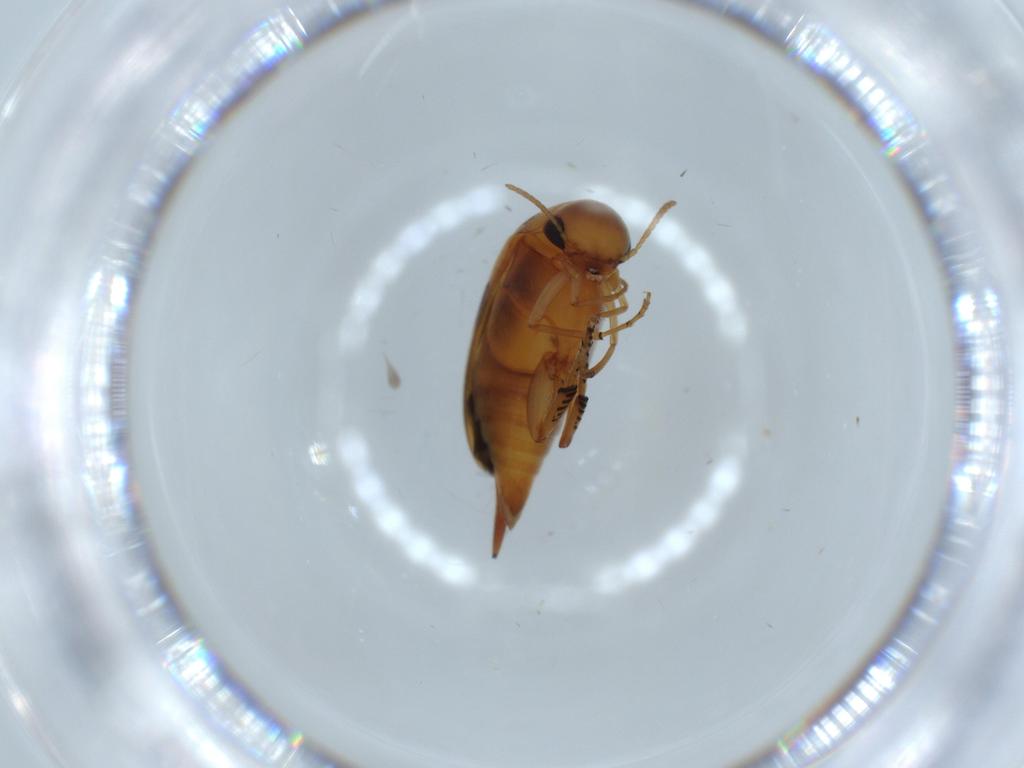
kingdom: Animalia
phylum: Arthropoda
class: Insecta
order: Coleoptera
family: Mordellidae
